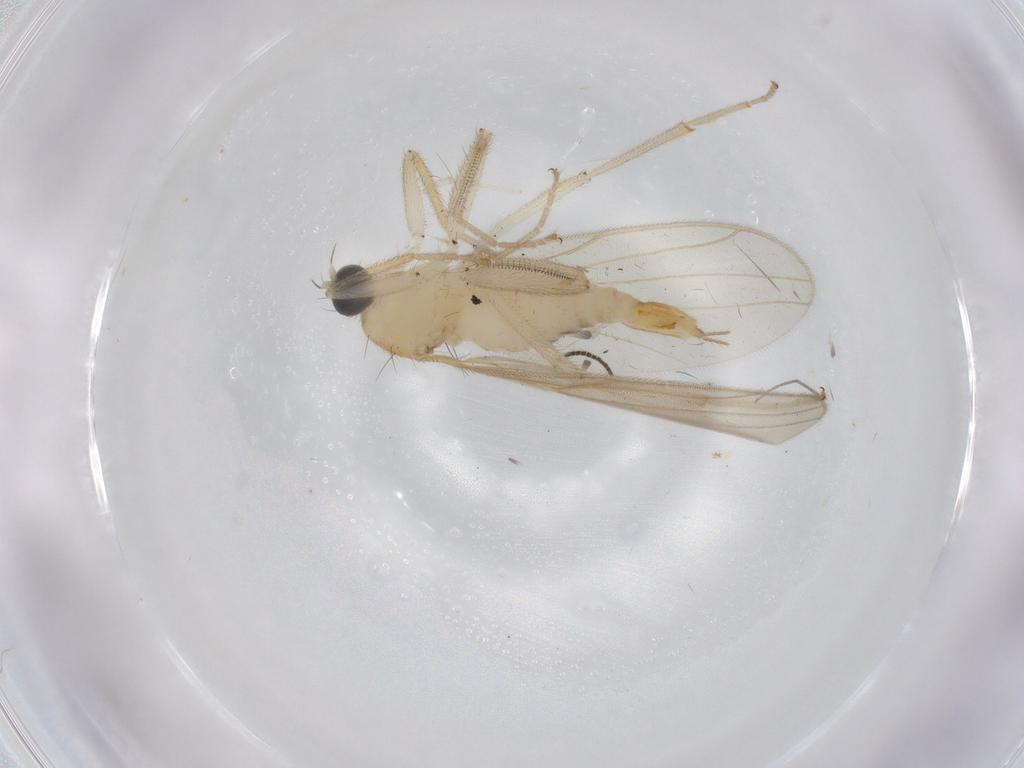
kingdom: Animalia
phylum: Arthropoda
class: Insecta
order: Diptera
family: Hybotidae
